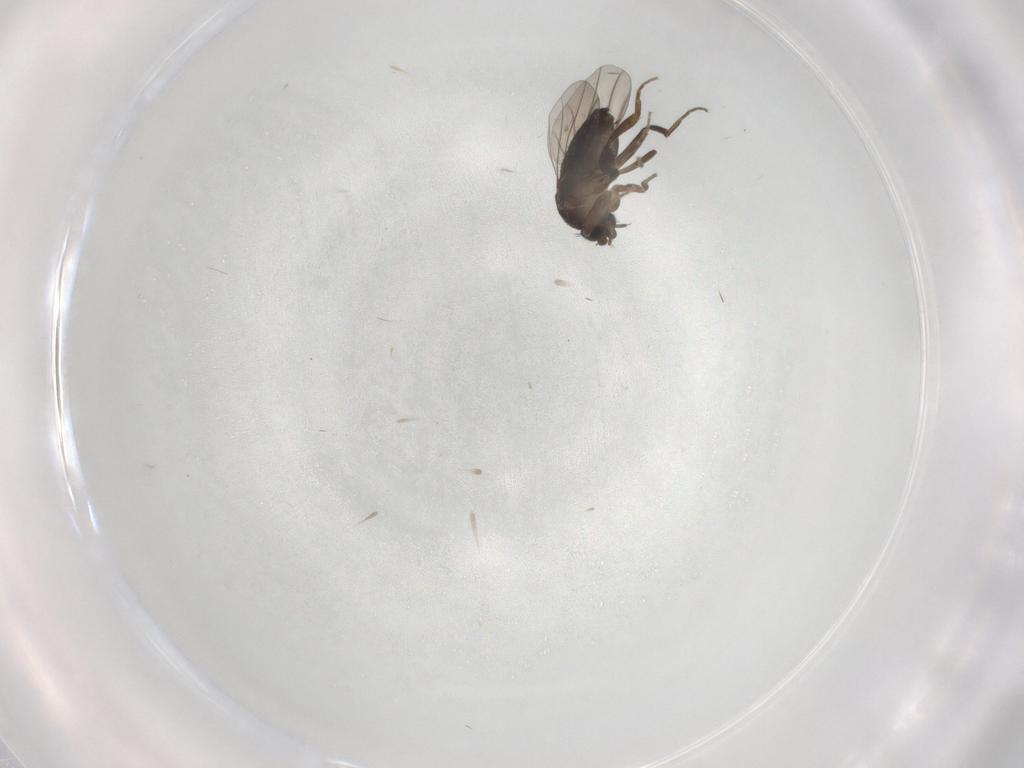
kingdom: Animalia
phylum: Arthropoda
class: Insecta
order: Diptera
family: Phoridae
